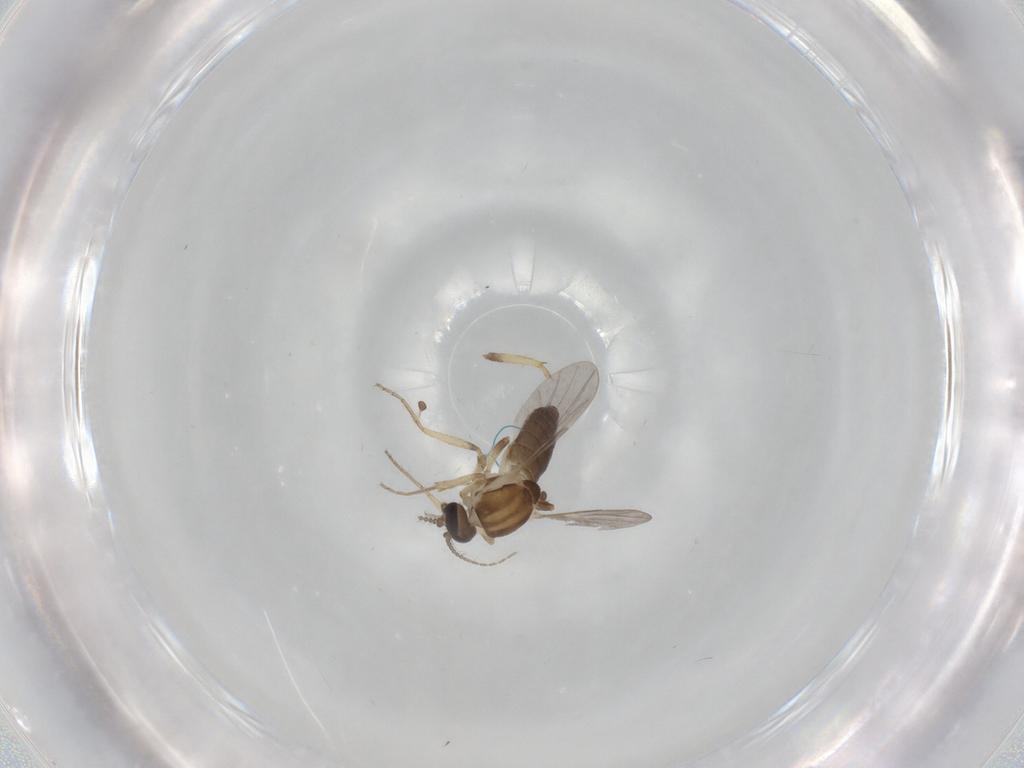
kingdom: Animalia
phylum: Arthropoda
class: Insecta
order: Diptera
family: Ceratopogonidae
